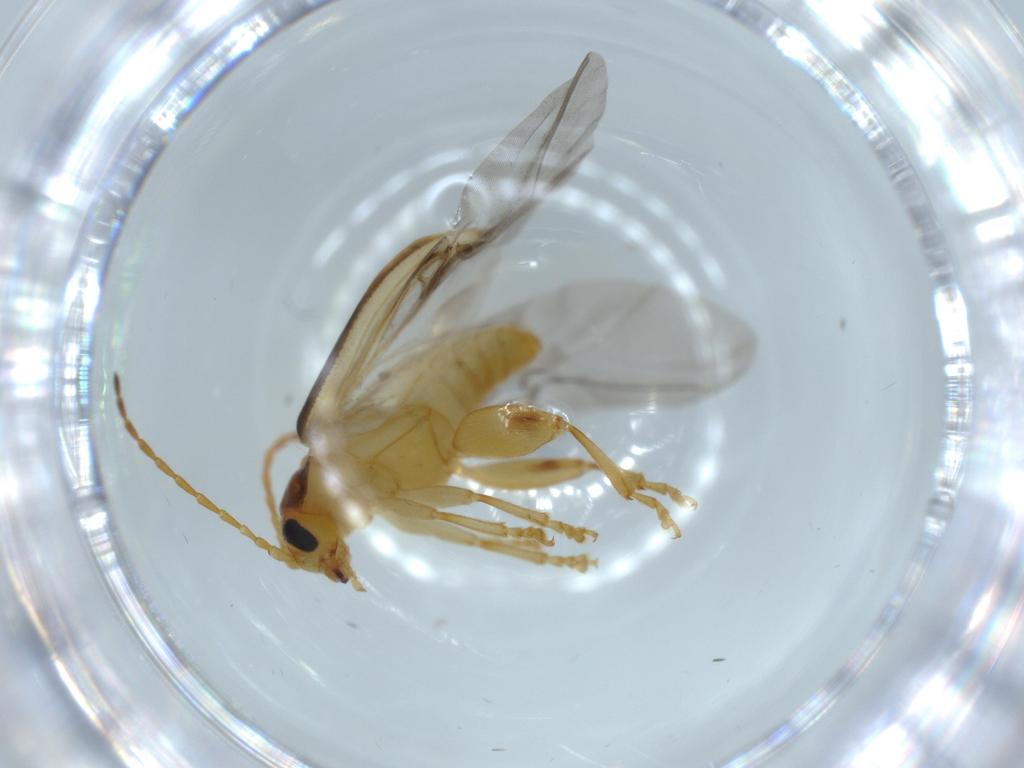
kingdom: Animalia
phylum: Arthropoda
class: Insecta
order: Coleoptera
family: Chrysomelidae
